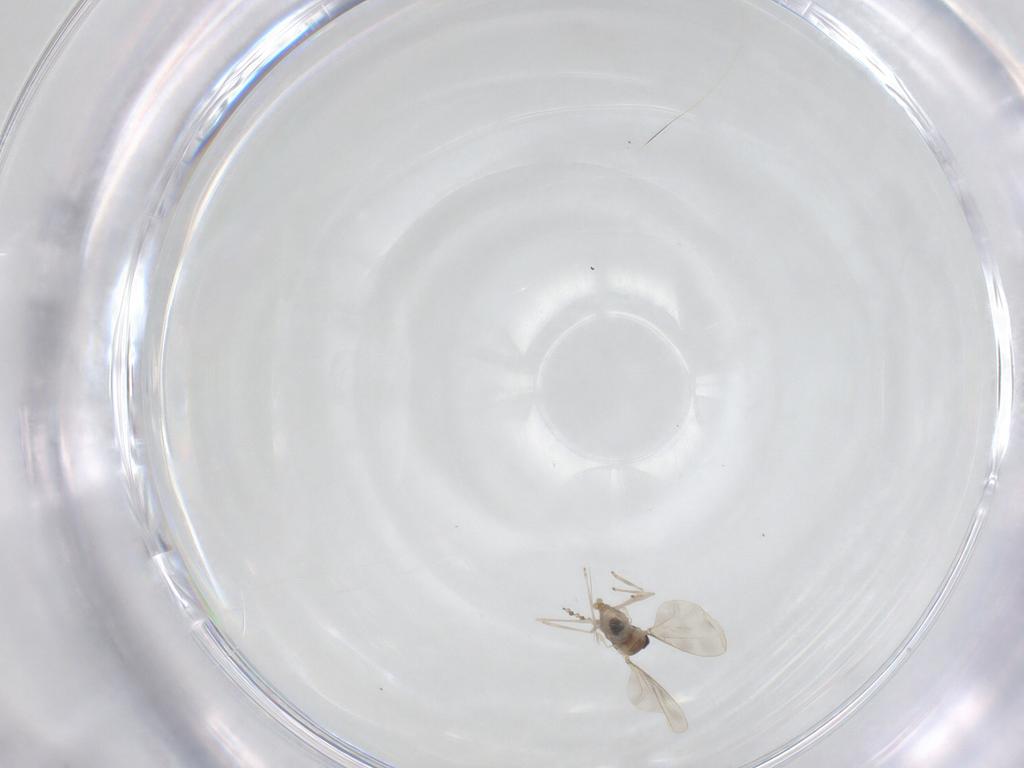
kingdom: Animalia
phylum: Arthropoda
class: Insecta
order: Diptera
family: Cecidomyiidae
